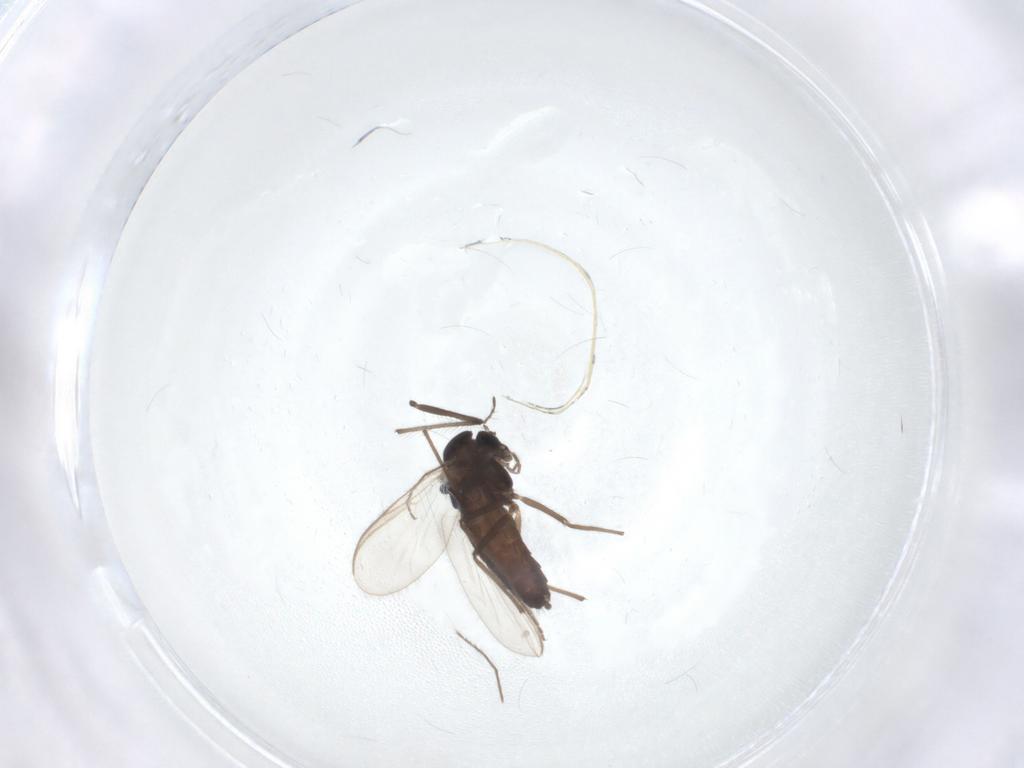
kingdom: Animalia
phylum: Arthropoda
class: Insecta
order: Diptera
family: Chironomidae
